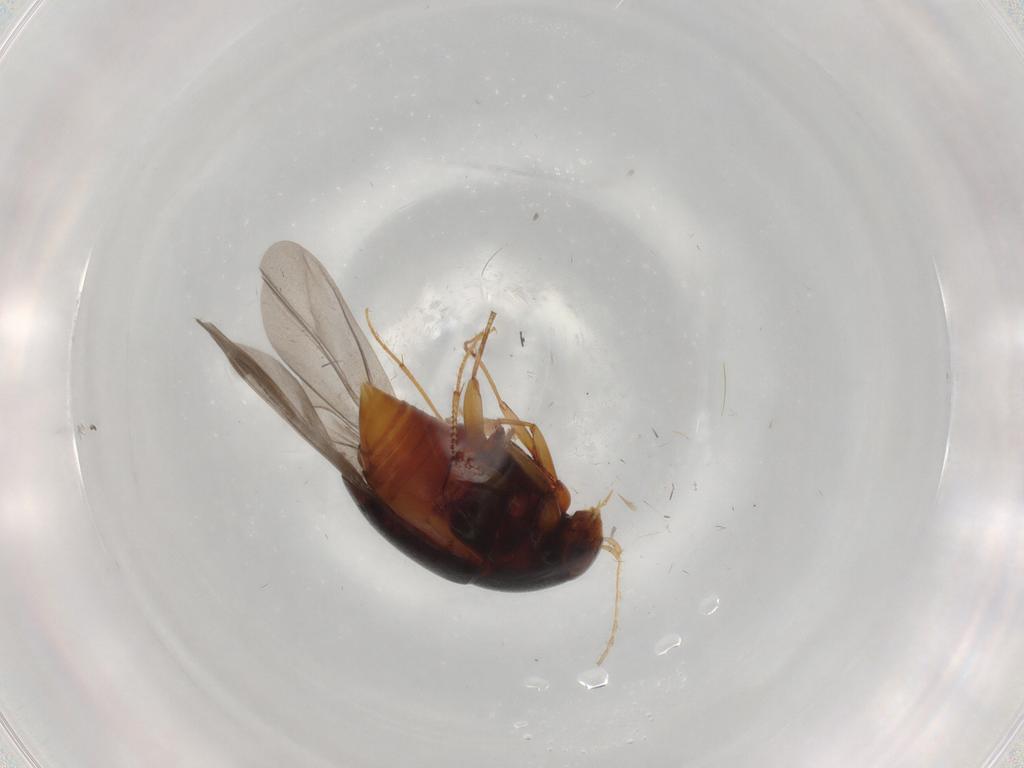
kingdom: Animalia
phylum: Arthropoda
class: Insecta
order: Coleoptera
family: Staphylinidae
